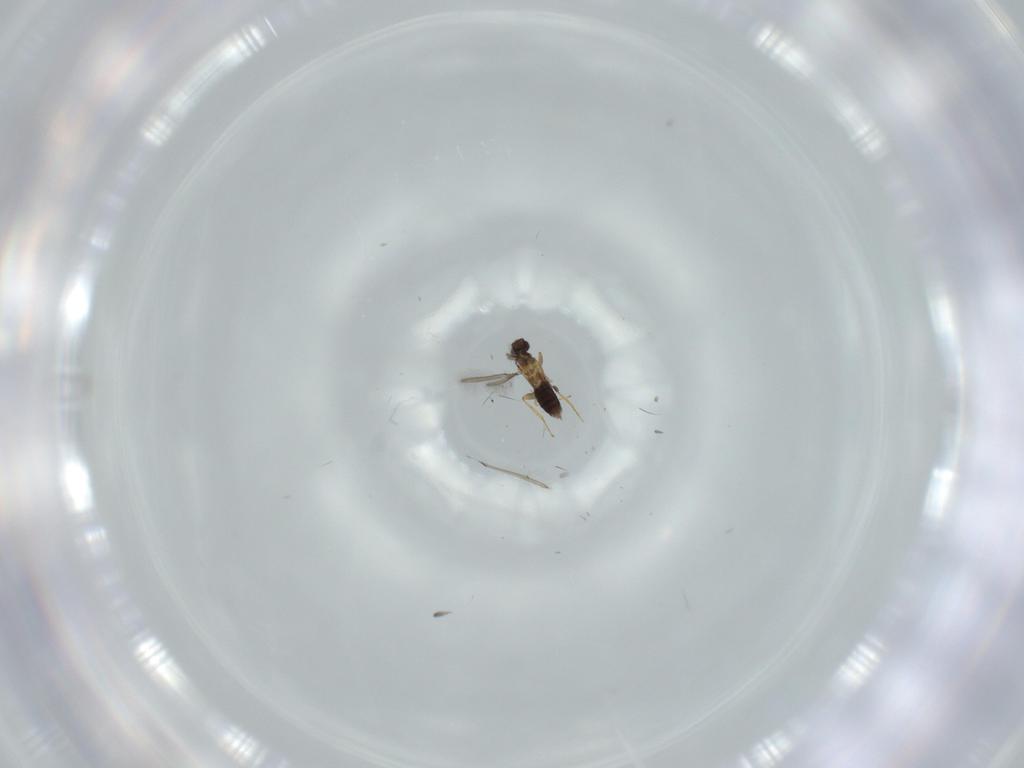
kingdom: Animalia
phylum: Arthropoda
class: Insecta
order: Hymenoptera
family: Mymaridae
